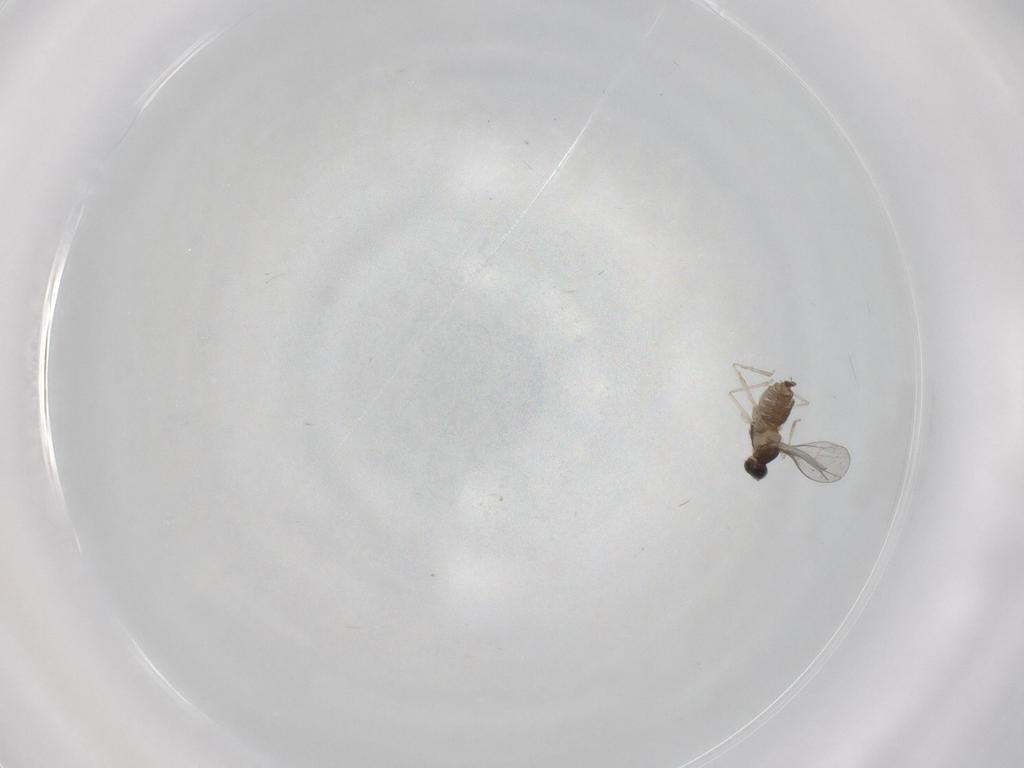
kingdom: Animalia
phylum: Arthropoda
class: Insecta
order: Diptera
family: Cecidomyiidae
